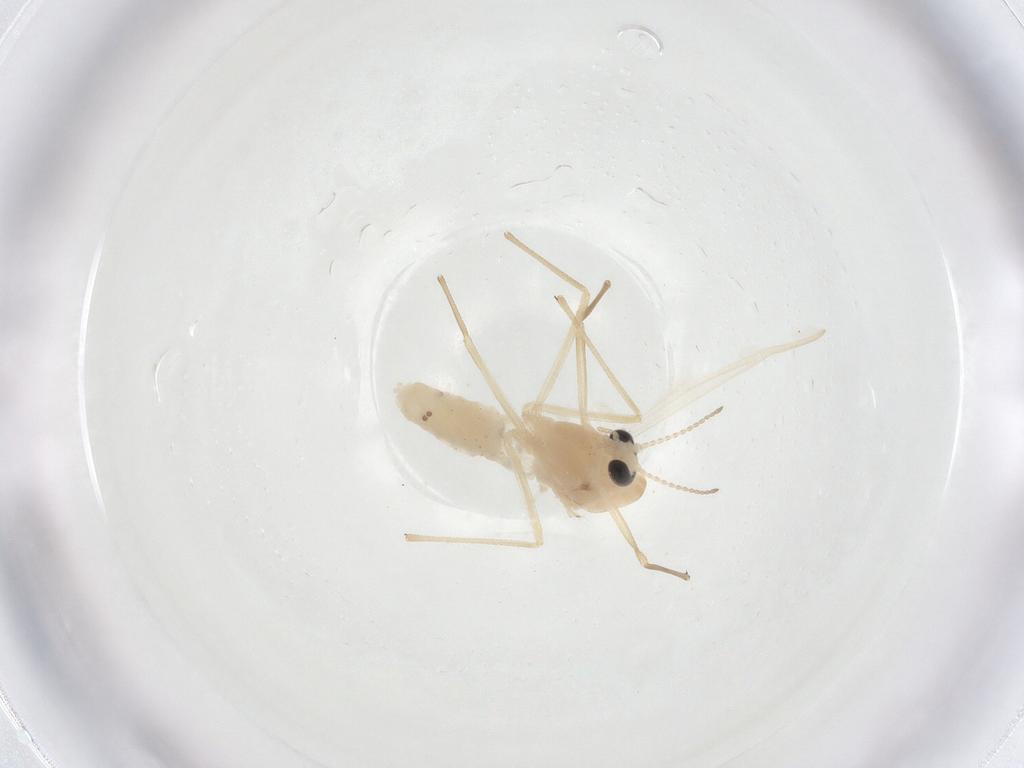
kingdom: Animalia
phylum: Arthropoda
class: Insecta
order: Diptera
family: Chironomidae
